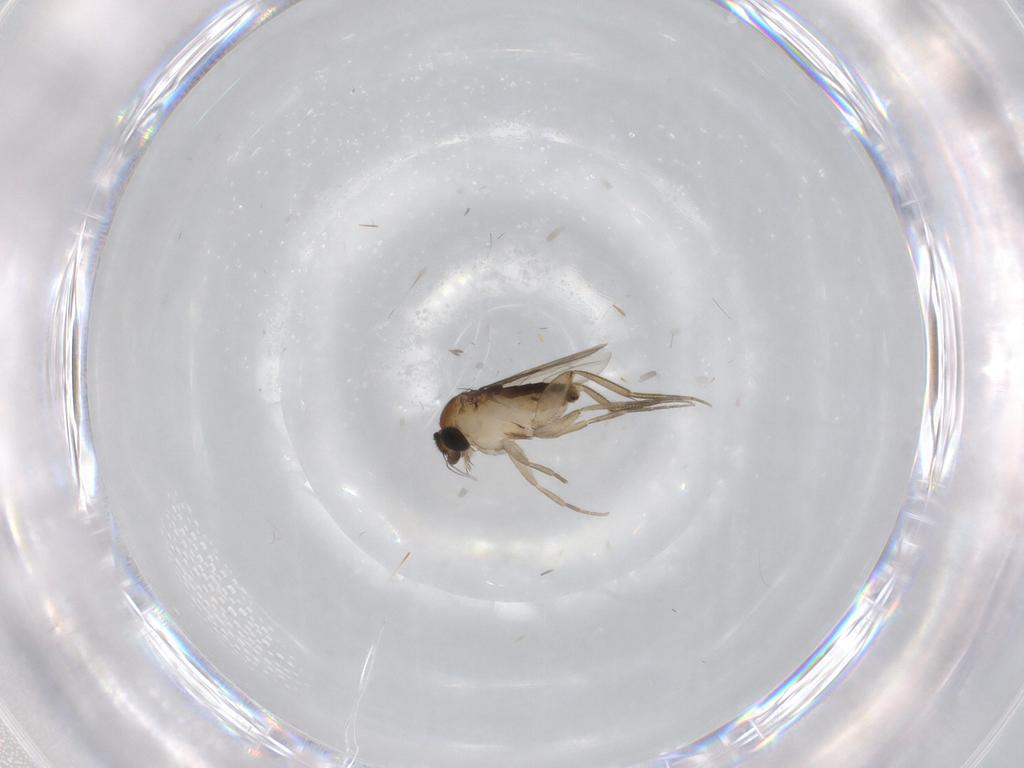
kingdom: Animalia
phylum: Arthropoda
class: Insecta
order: Diptera
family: Phoridae
